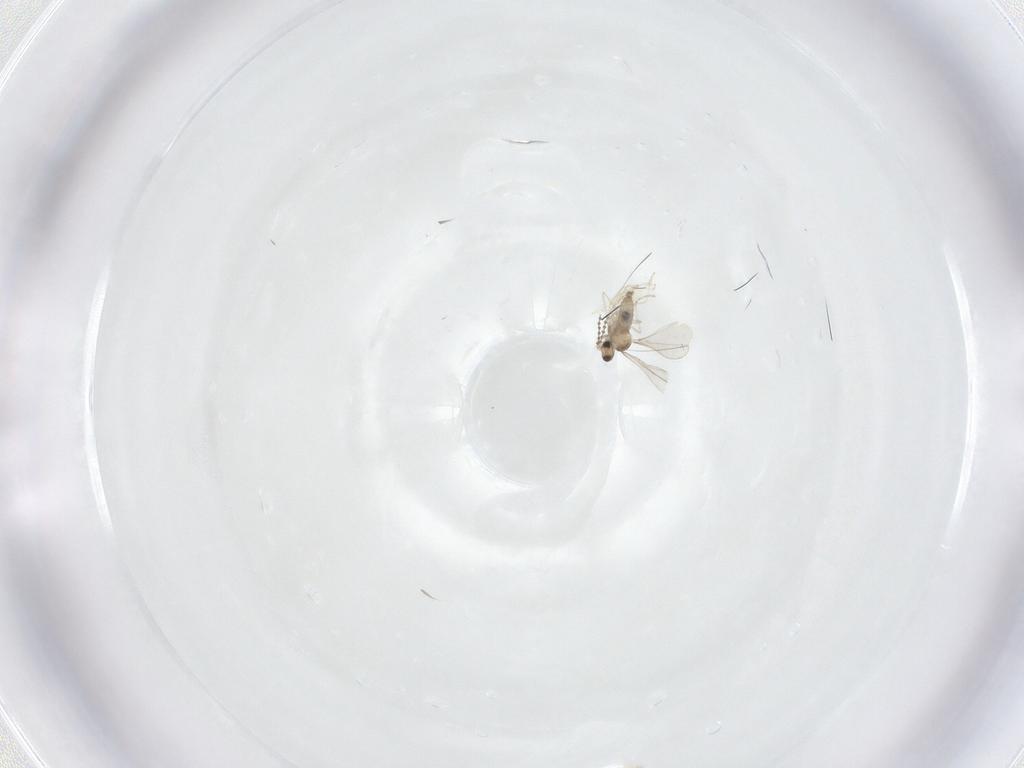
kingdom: Animalia
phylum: Arthropoda
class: Insecta
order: Diptera
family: Cecidomyiidae
